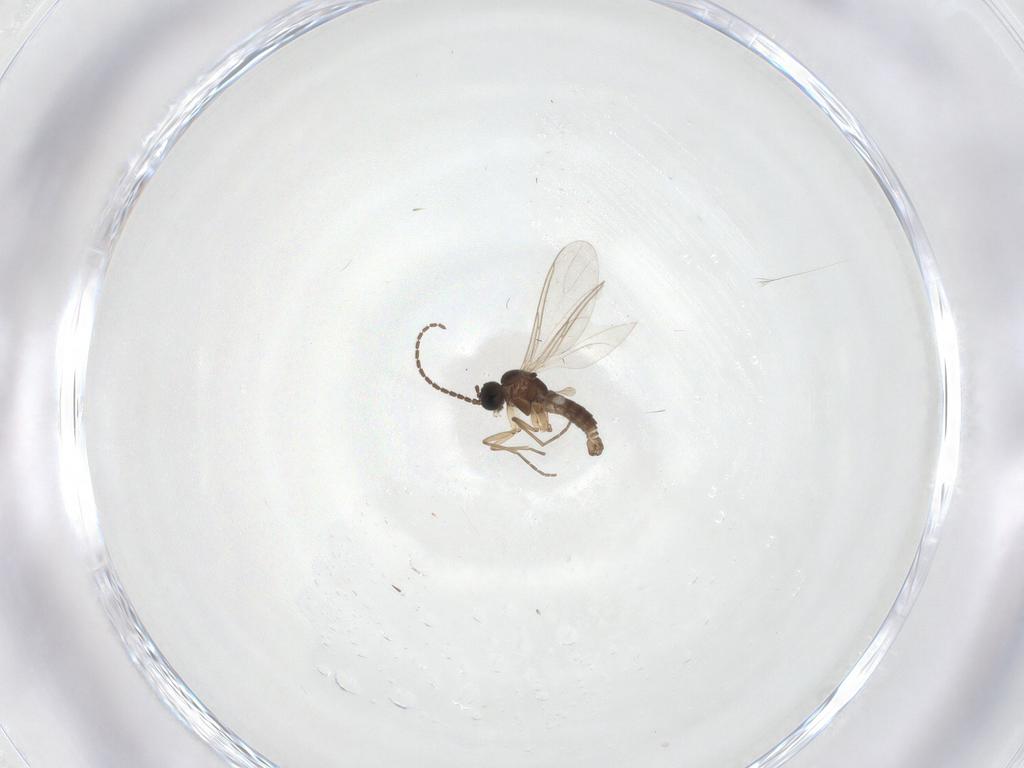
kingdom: Animalia
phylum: Arthropoda
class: Insecta
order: Diptera
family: Sciaridae
